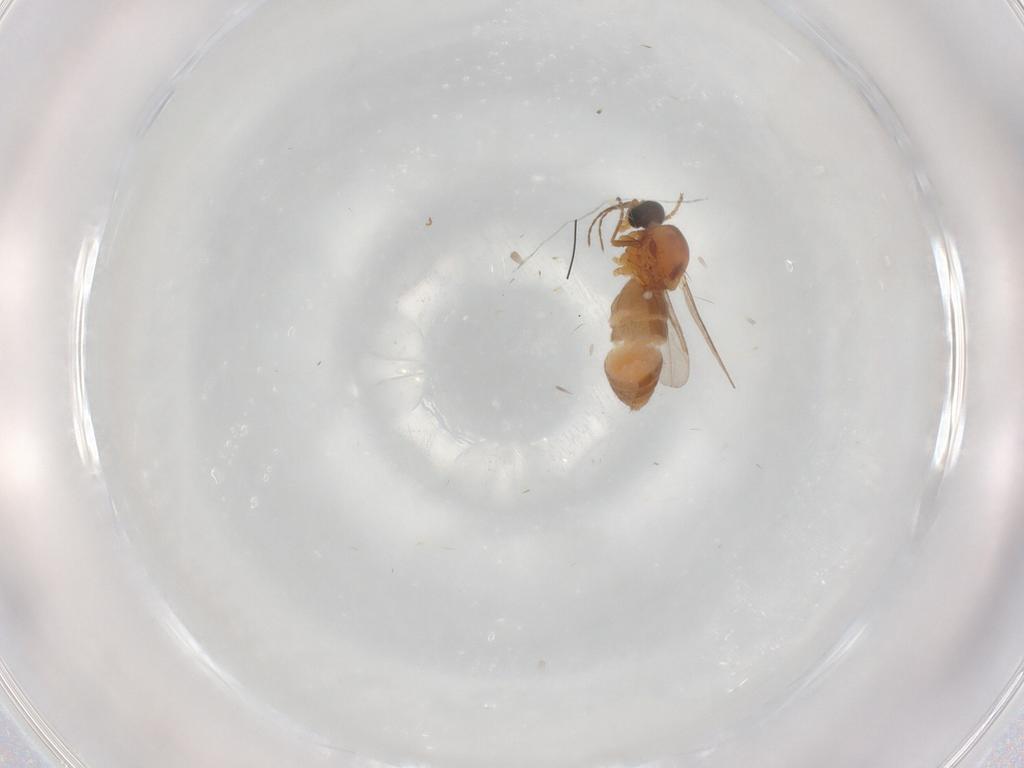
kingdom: Animalia
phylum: Arthropoda
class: Insecta
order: Diptera
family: Ceratopogonidae
